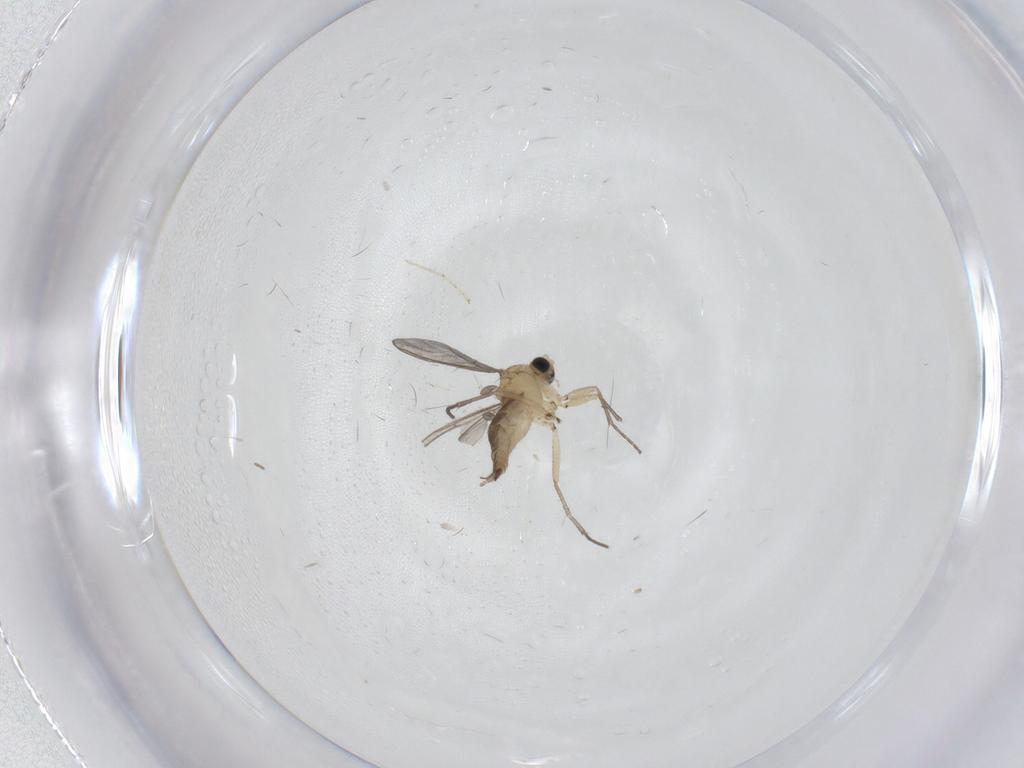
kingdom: Animalia
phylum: Arthropoda
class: Insecta
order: Diptera
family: Sciaridae
